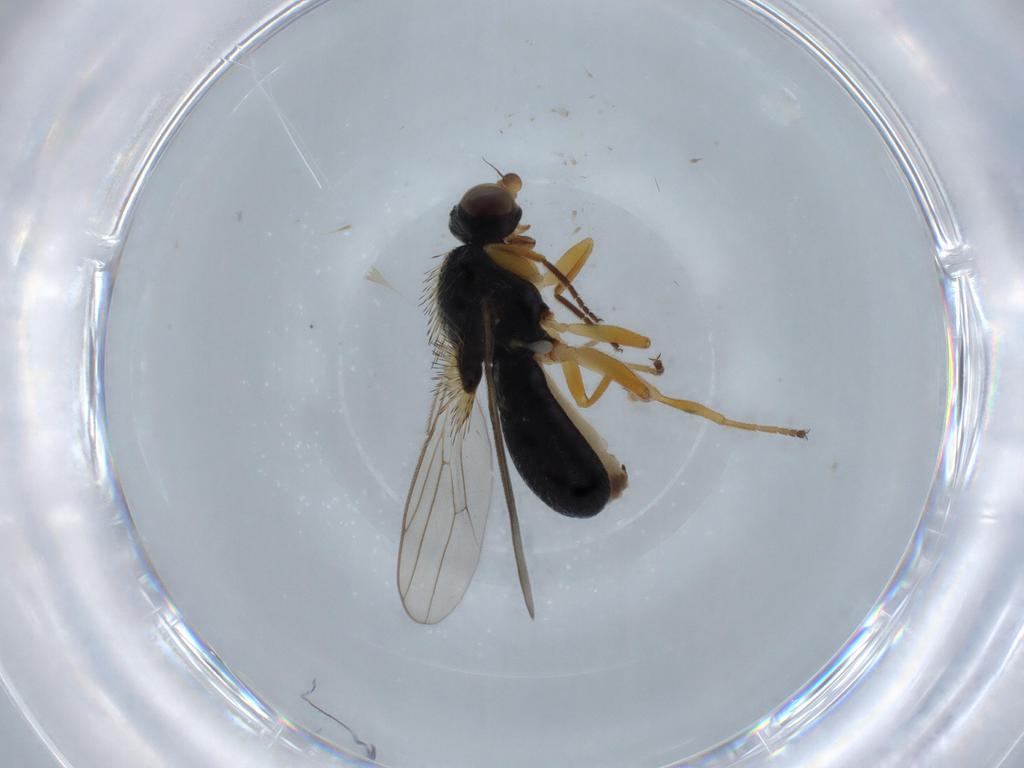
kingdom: Animalia
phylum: Arthropoda
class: Insecta
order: Diptera
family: Chloropidae
